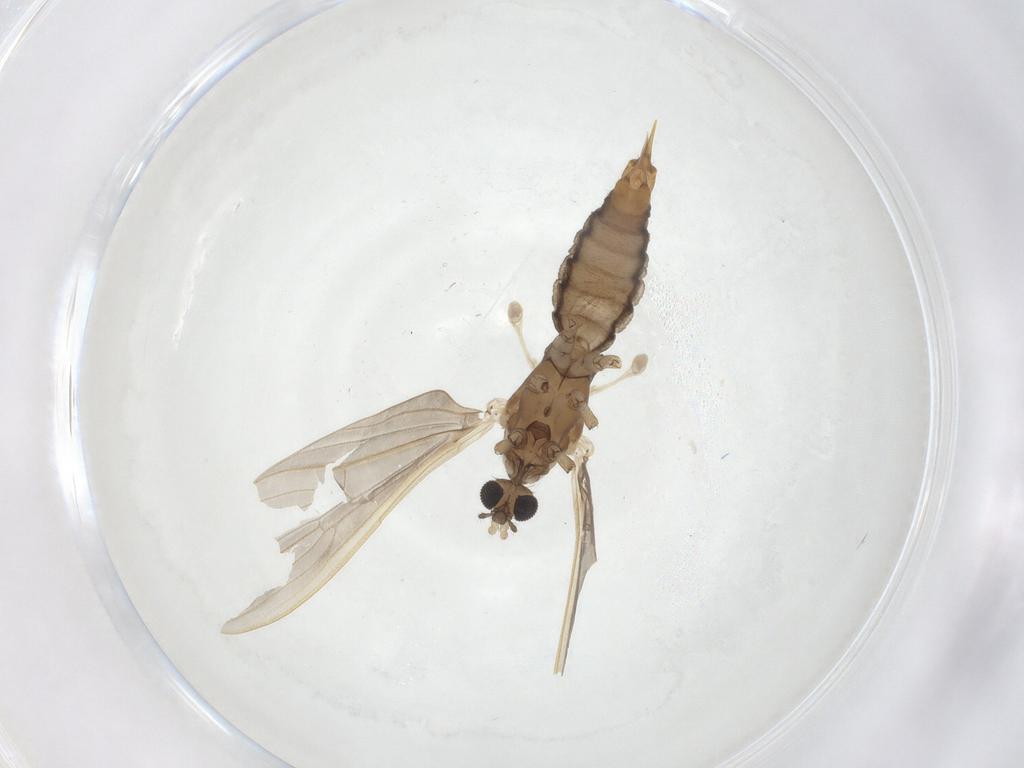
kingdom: Animalia
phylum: Arthropoda
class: Insecta
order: Diptera
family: Limoniidae
